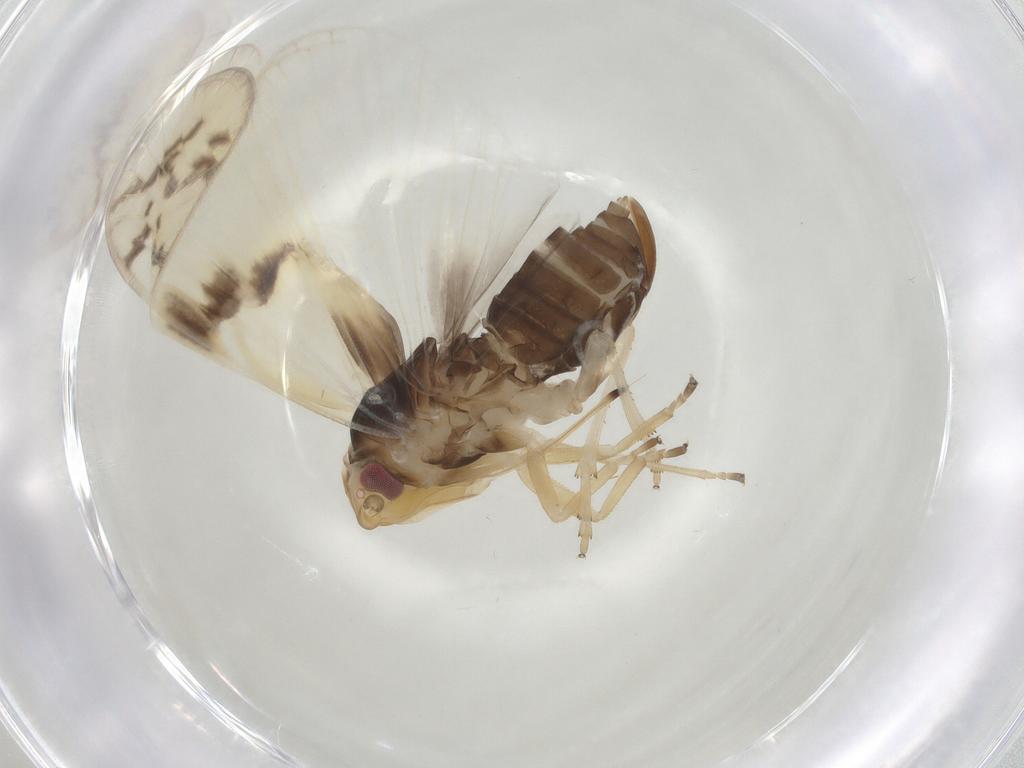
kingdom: Animalia
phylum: Arthropoda
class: Insecta
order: Hemiptera
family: Cixiidae
